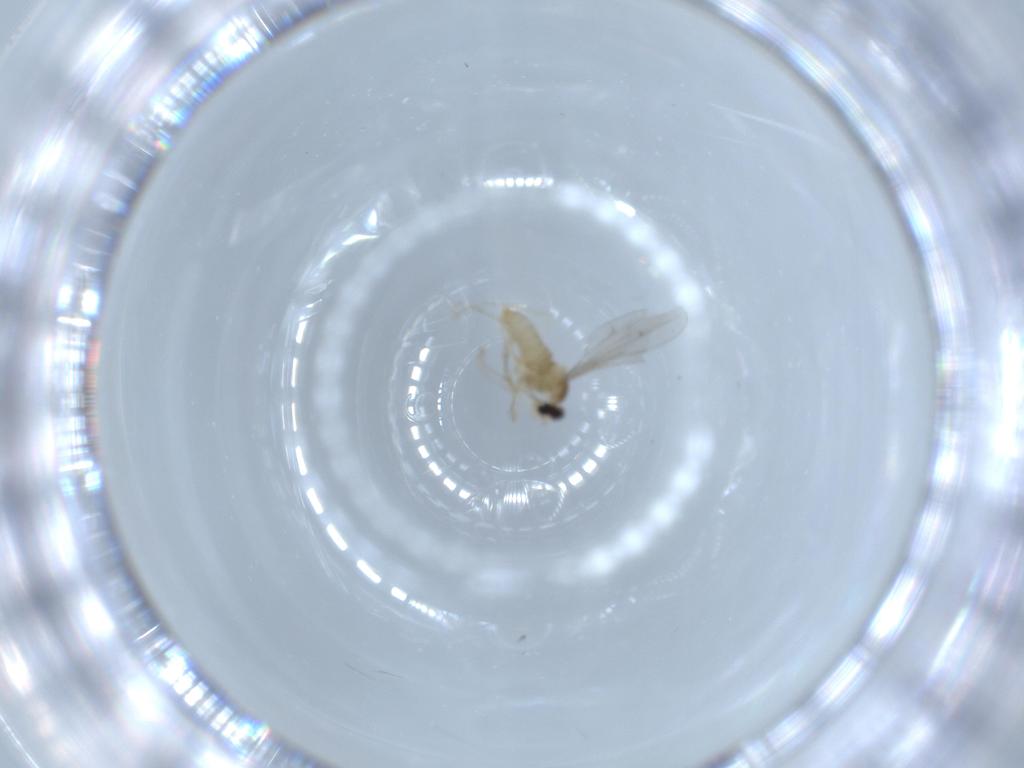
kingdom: Animalia
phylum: Arthropoda
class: Insecta
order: Diptera
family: Cecidomyiidae
